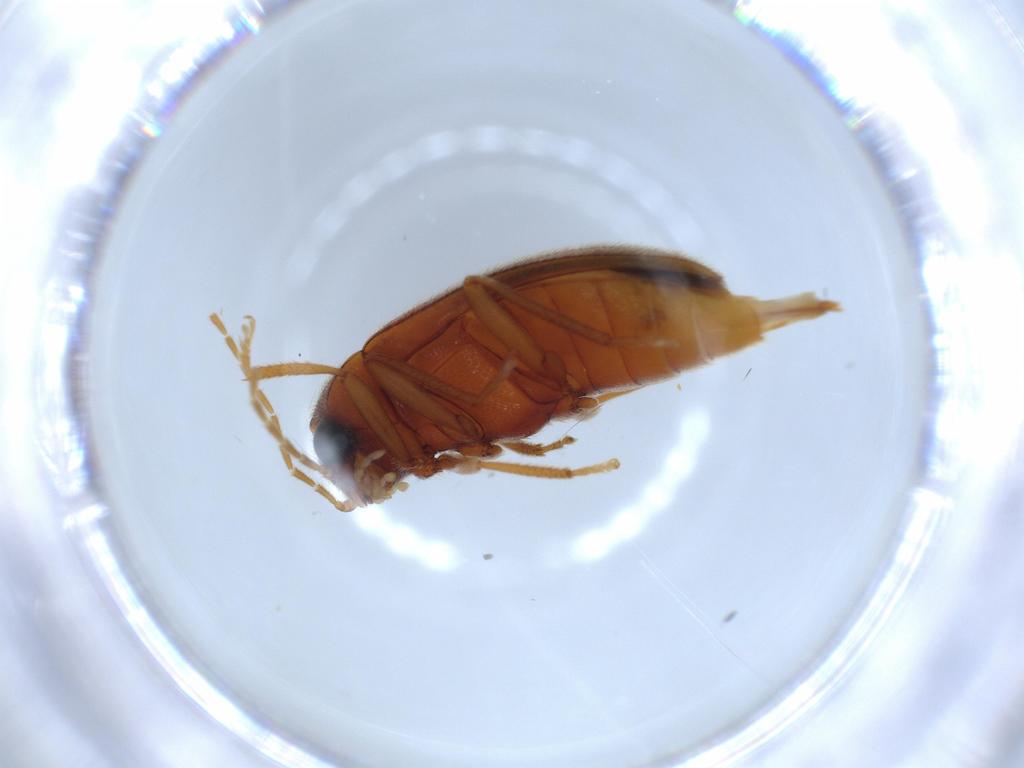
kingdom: Animalia
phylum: Arthropoda
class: Insecta
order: Coleoptera
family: Ptilodactylidae
